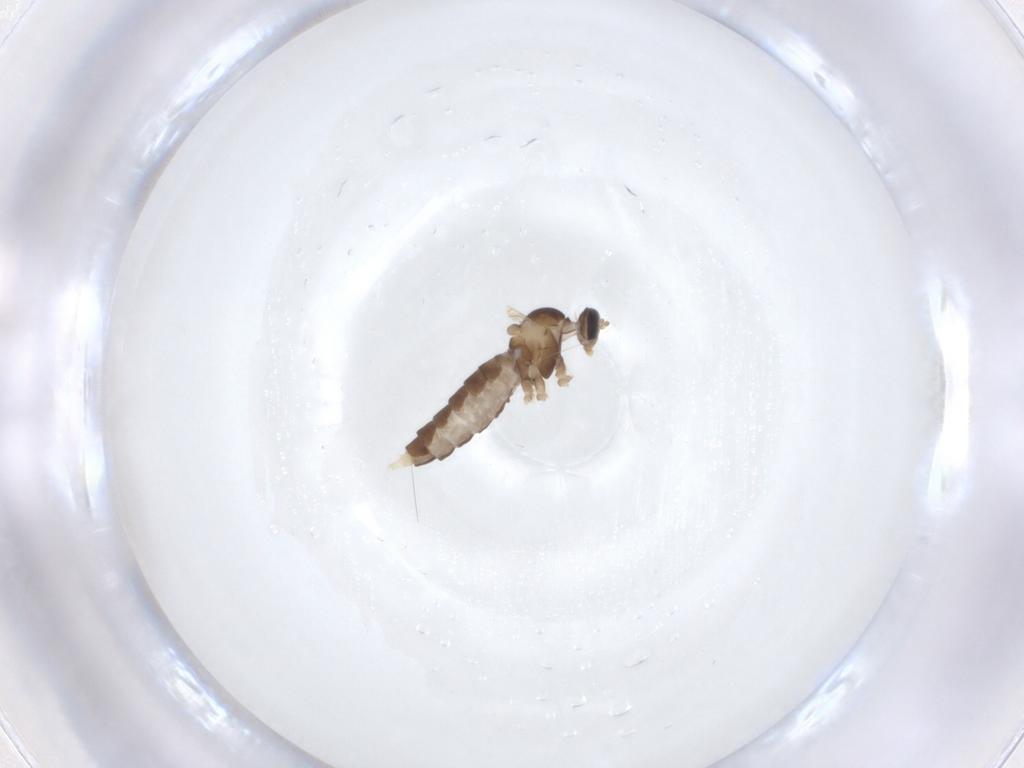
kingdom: Animalia
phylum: Arthropoda
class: Insecta
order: Diptera
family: Cecidomyiidae
